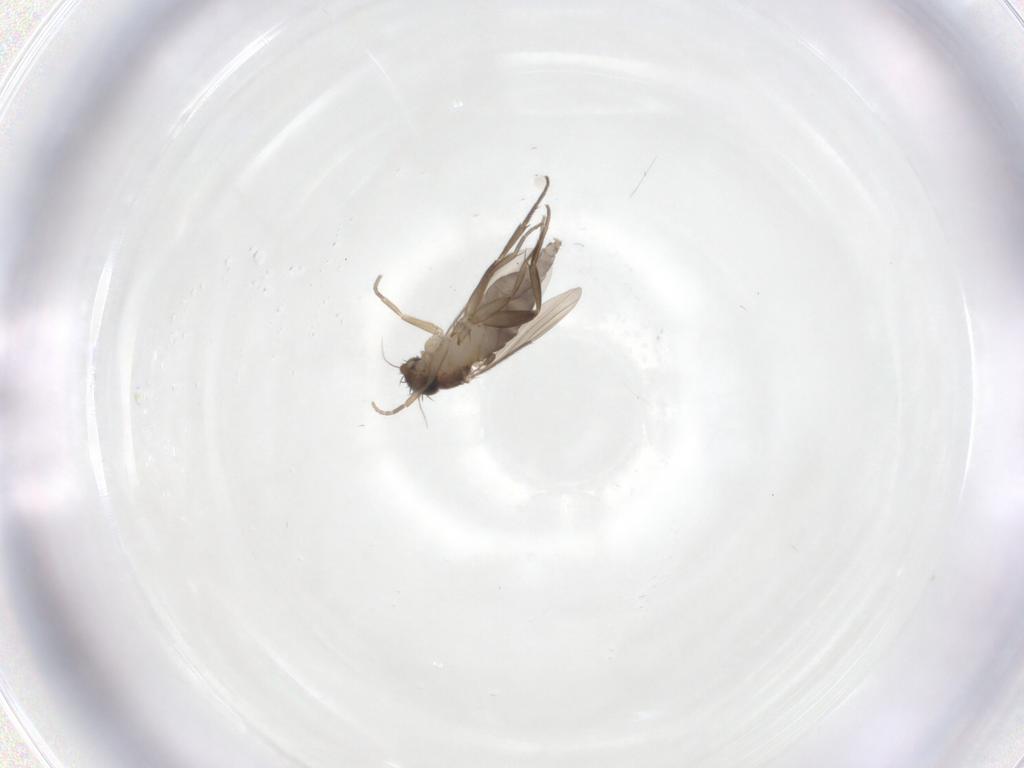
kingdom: Animalia
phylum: Arthropoda
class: Insecta
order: Diptera
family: Phoridae
